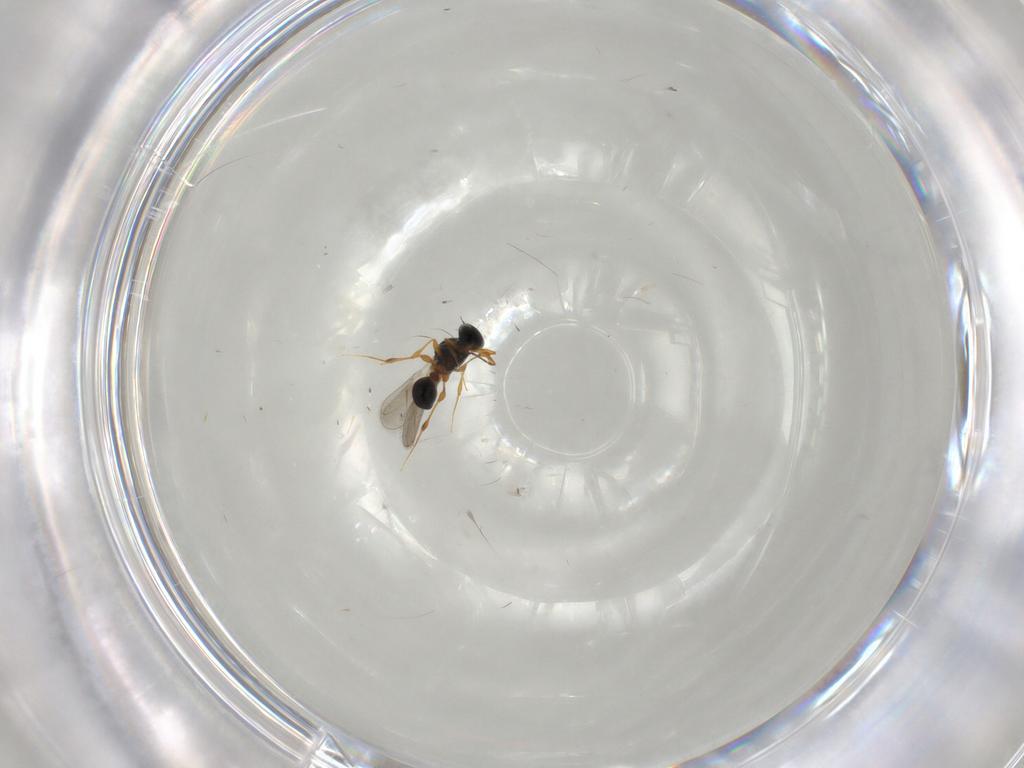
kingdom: Animalia
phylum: Arthropoda
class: Insecta
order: Hymenoptera
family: Platygastridae
